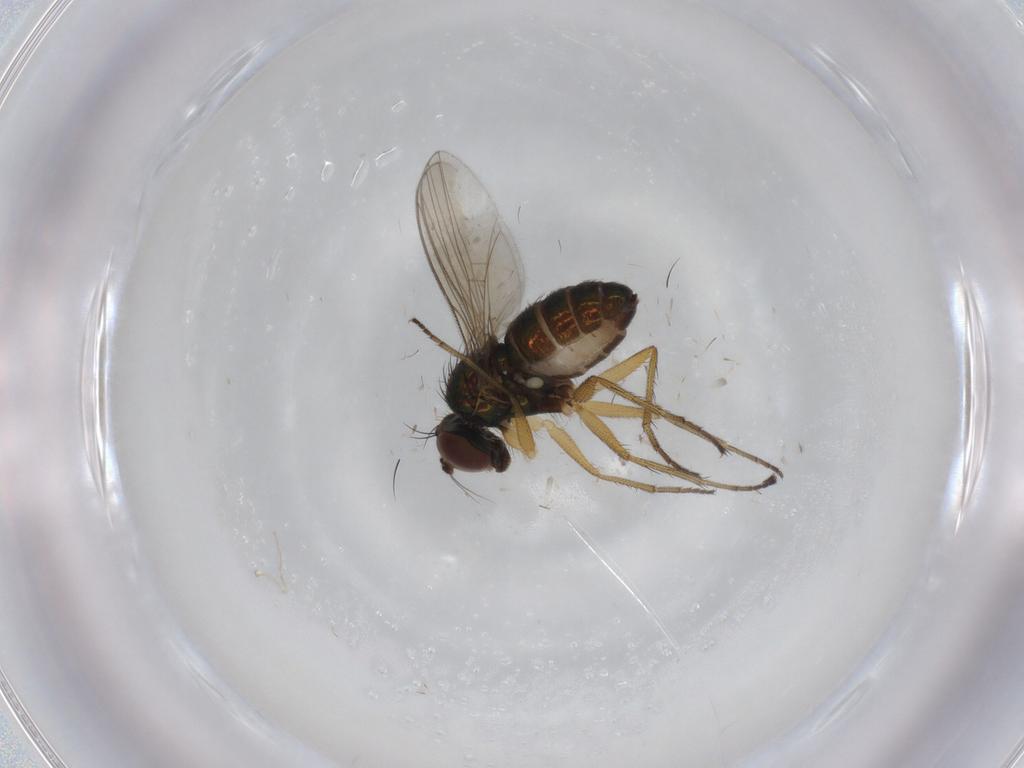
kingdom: Animalia
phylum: Arthropoda
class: Insecta
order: Diptera
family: Dolichopodidae
